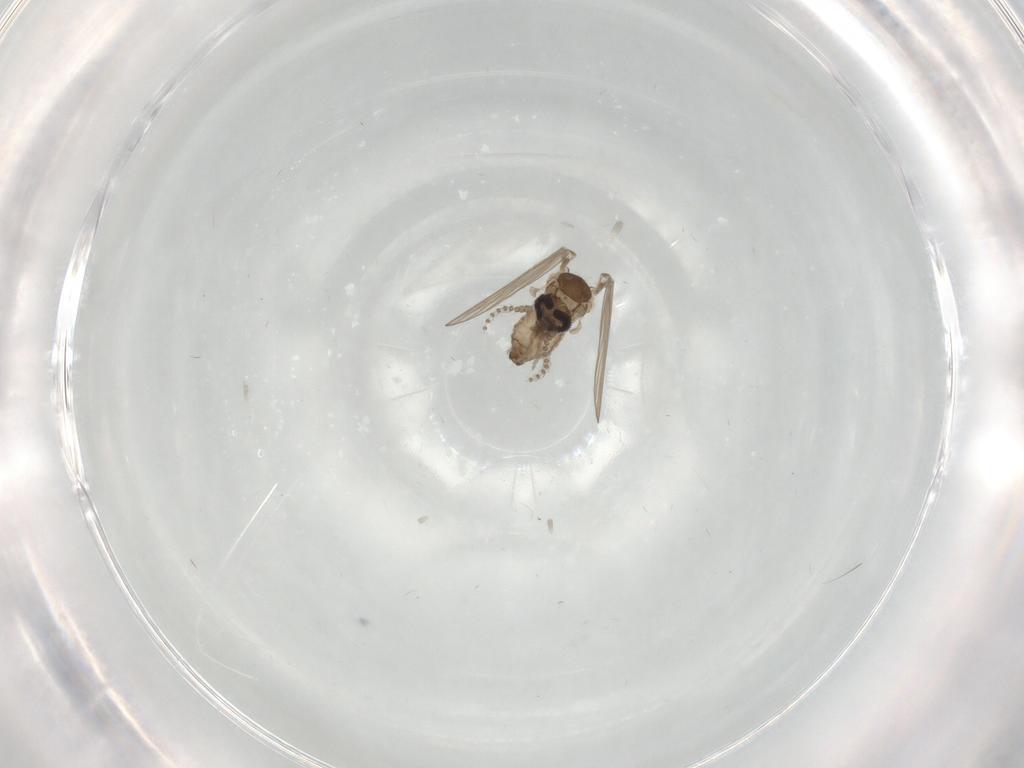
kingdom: Animalia
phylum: Arthropoda
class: Insecta
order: Diptera
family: Psychodidae
